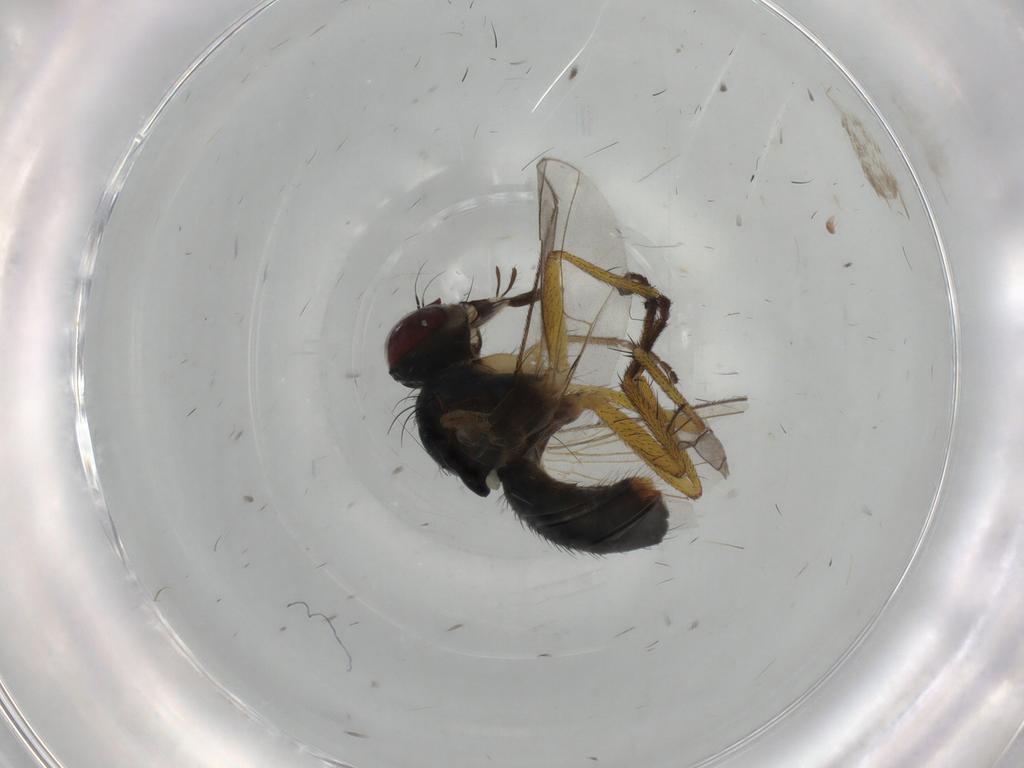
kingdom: Animalia
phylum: Arthropoda
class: Insecta
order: Diptera
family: Muscidae
